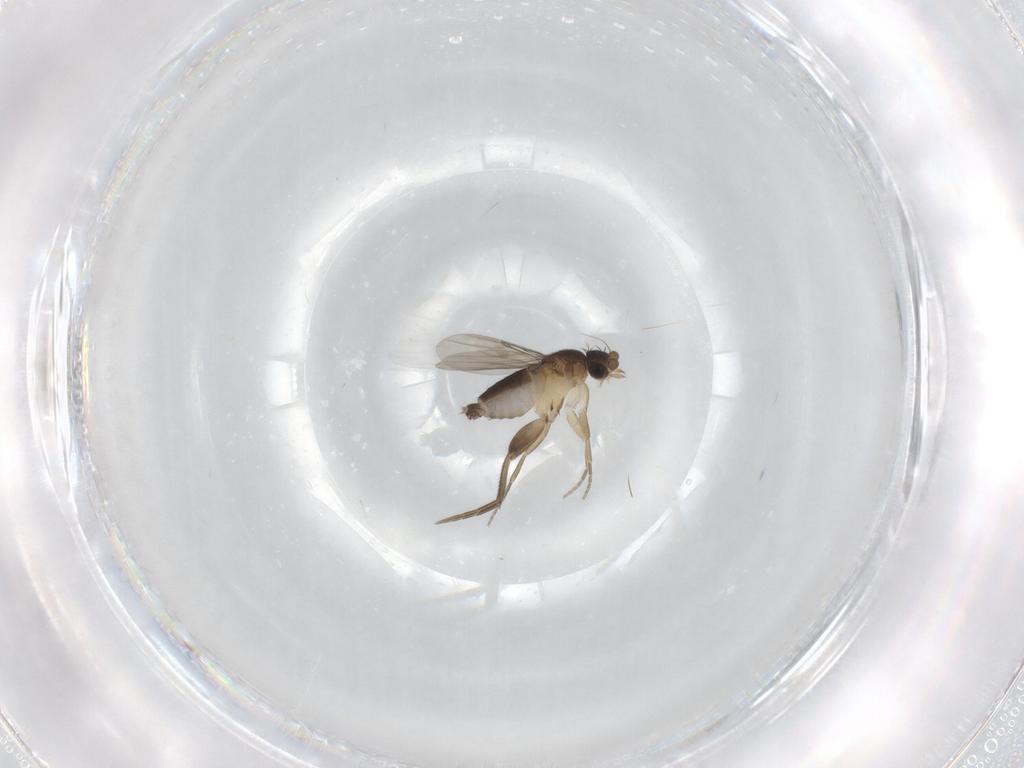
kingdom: Animalia
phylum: Arthropoda
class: Insecta
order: Diptera
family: Phoridae
